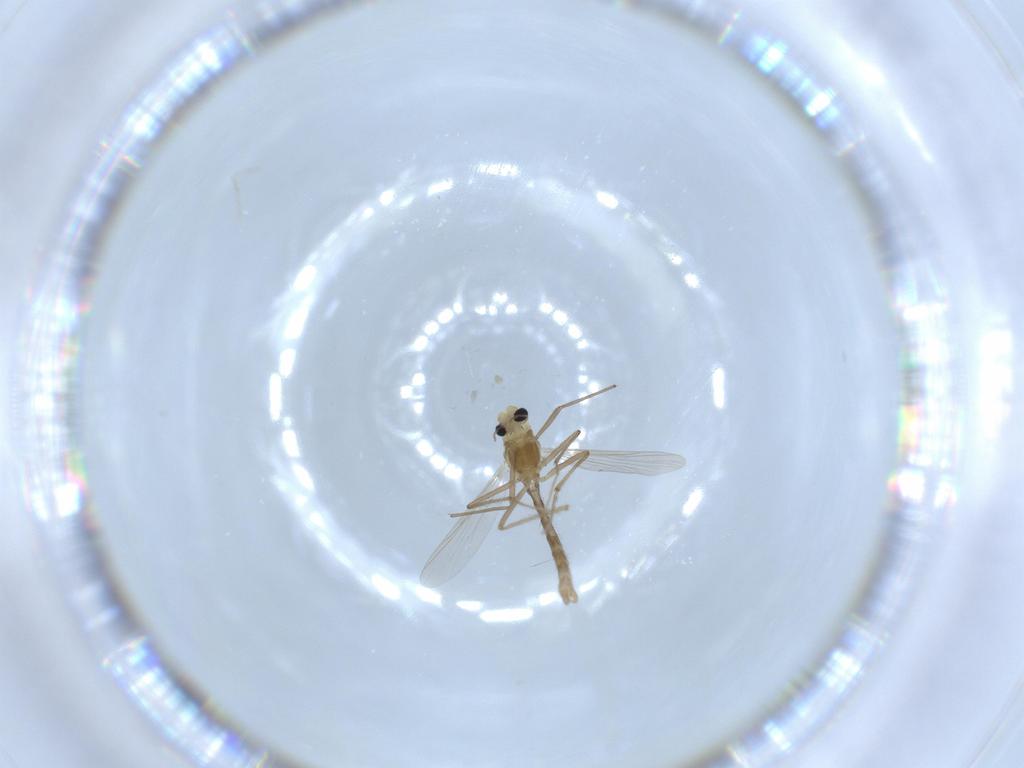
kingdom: Animalia
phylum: Arthropoda
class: Insecta
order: Diptera
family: Chironomidae
